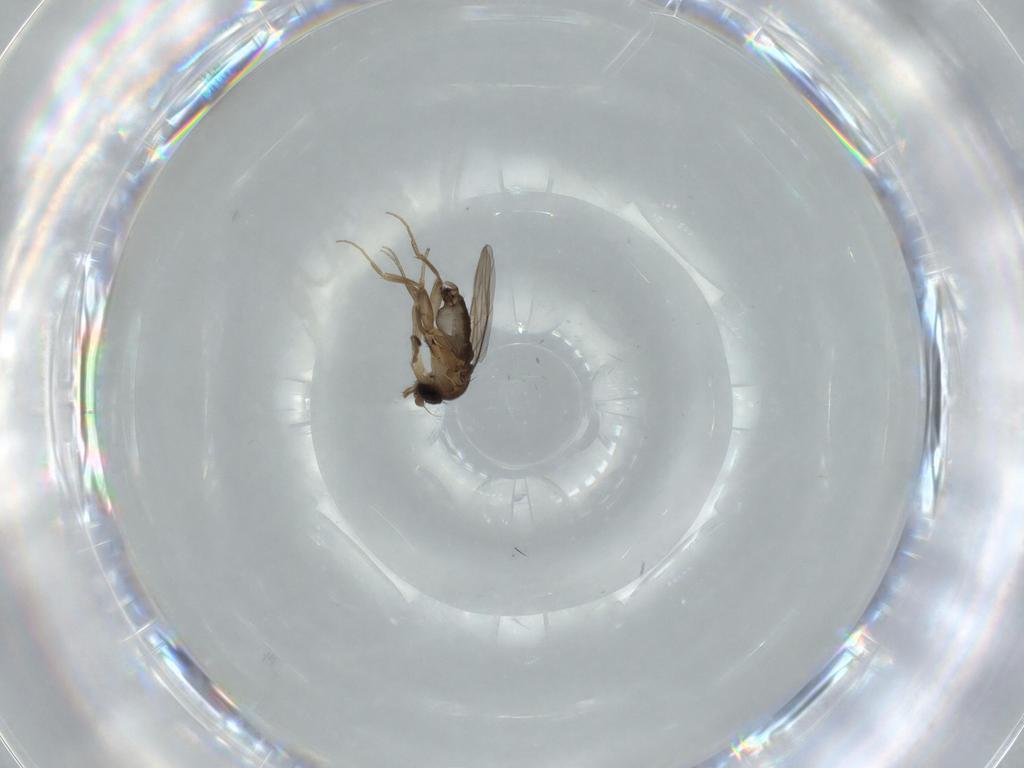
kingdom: Animalia
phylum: Arthropoda
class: Insecta
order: Diptera
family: Phoridae
